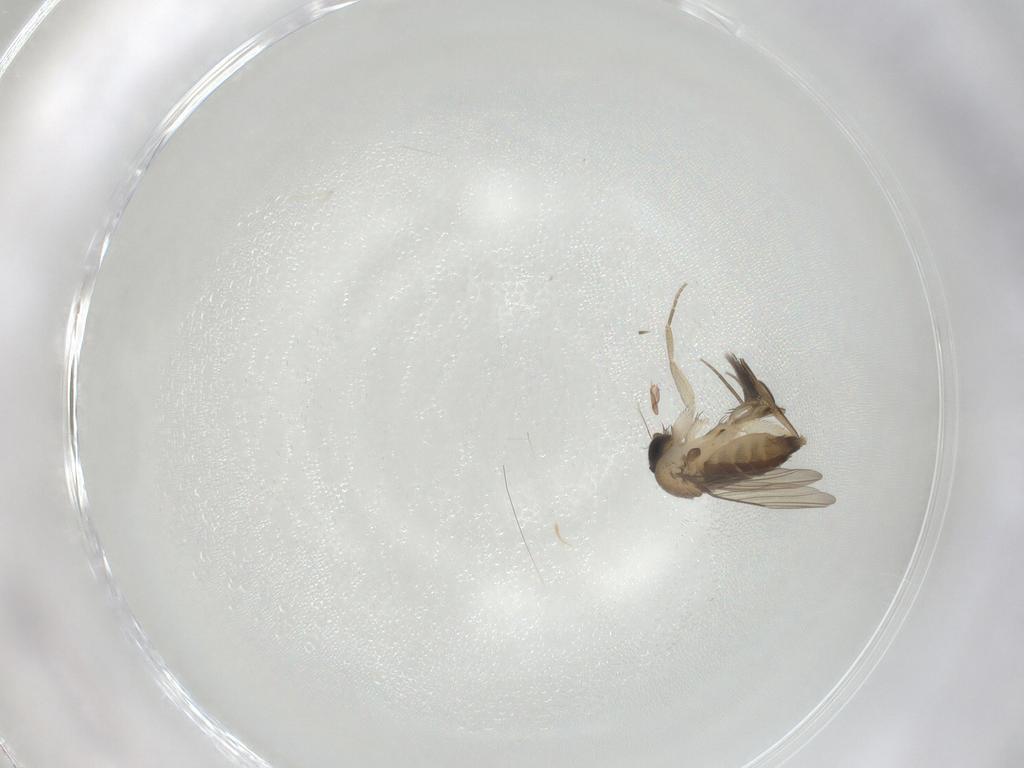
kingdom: Animalia
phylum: Arthropoda
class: Insecta
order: Diptera
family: Phoridae
